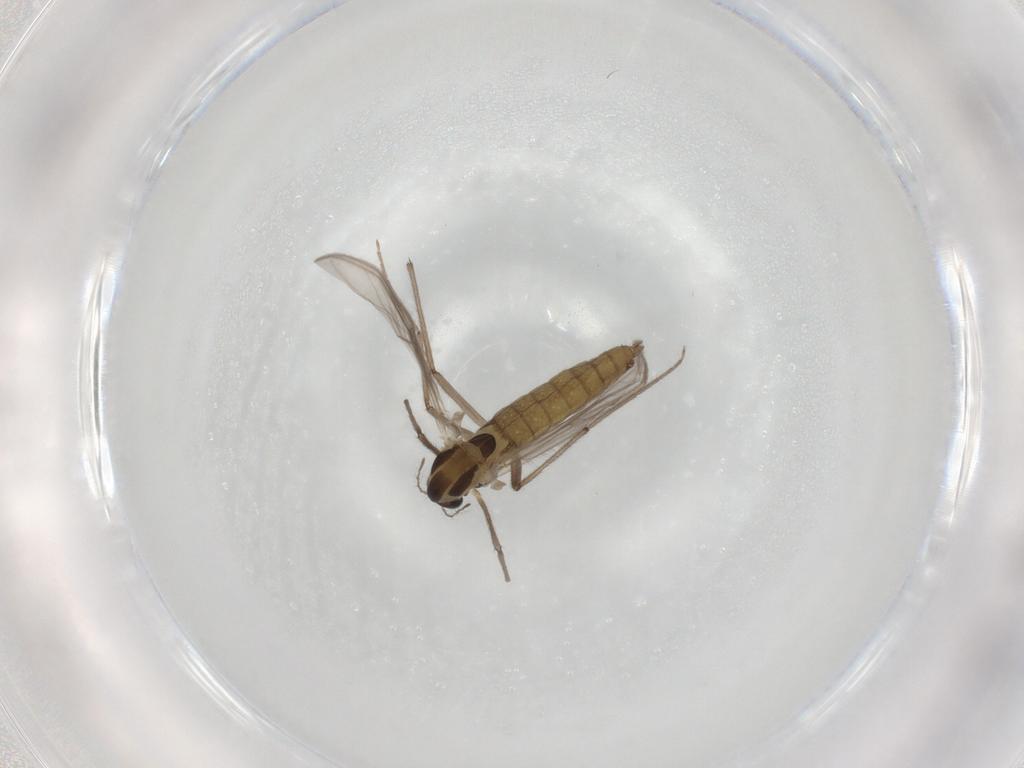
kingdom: Animalia
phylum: Arthropoda
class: Insecta
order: Diptera
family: Chironomidae
